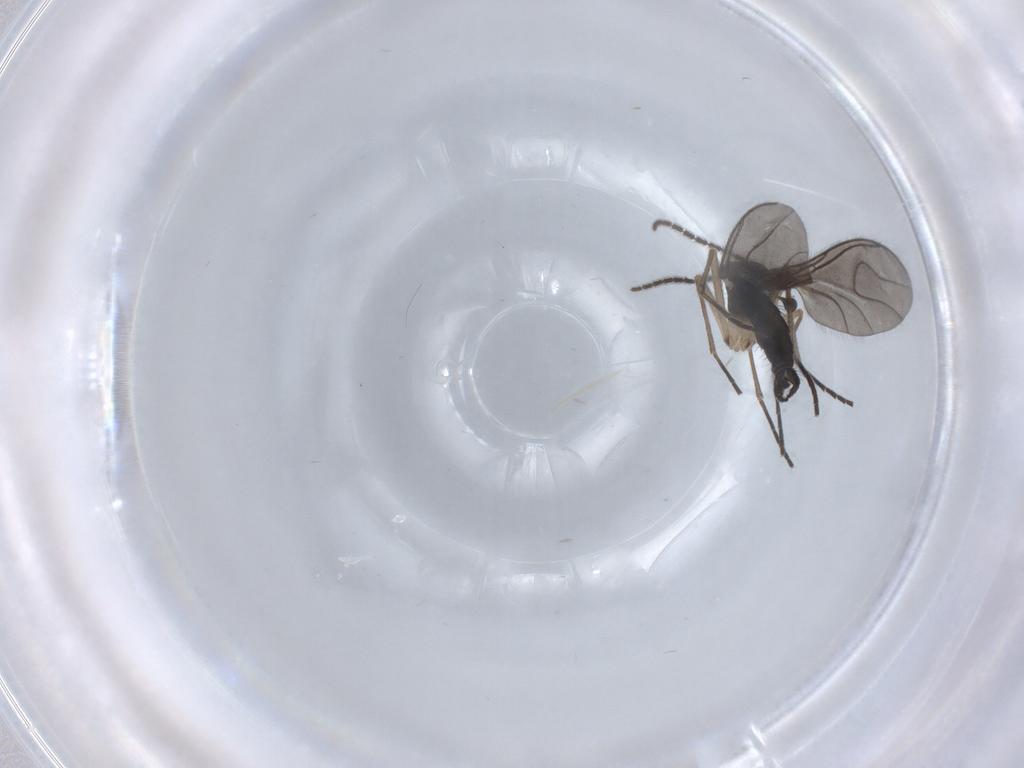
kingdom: Animalia
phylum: Arthropoda
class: Insecta
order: Diptera
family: Sciaridae
